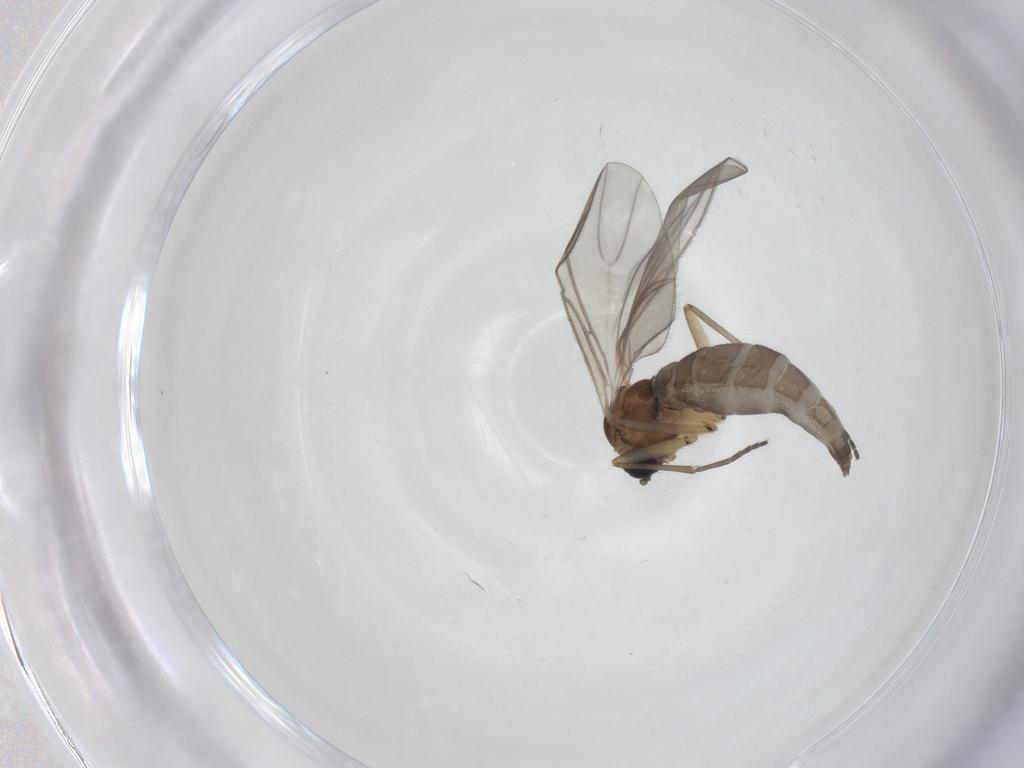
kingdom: Animalia
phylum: Arthropoda
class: Insecta
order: Diptera
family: Sciaridae
